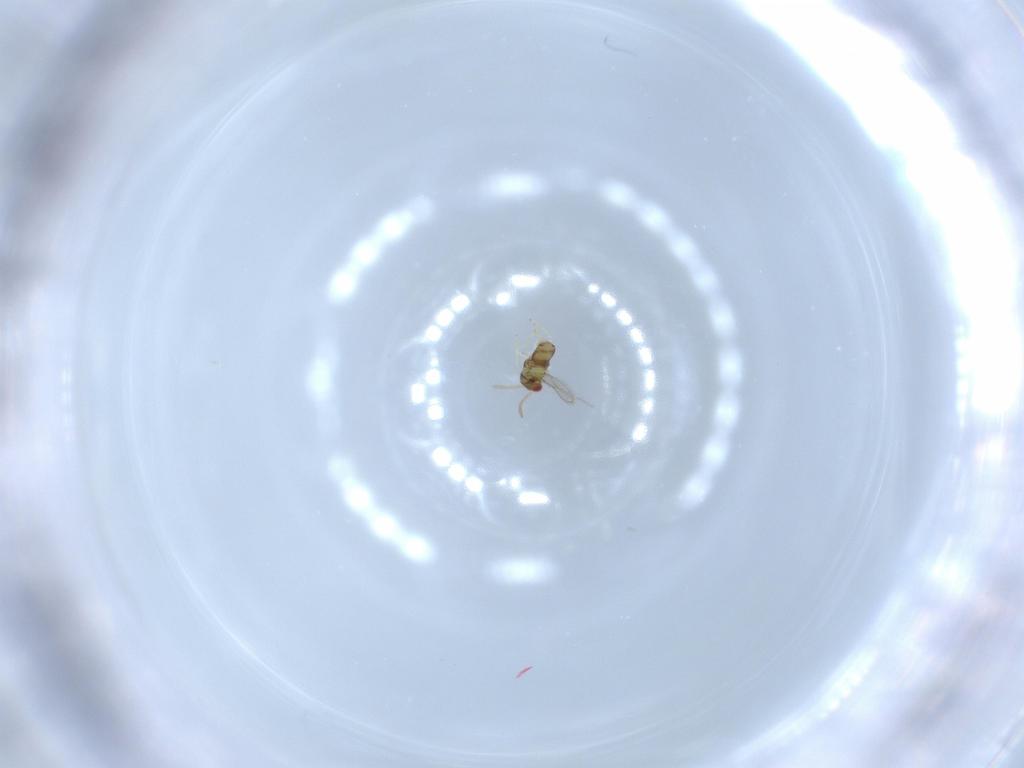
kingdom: Animalia
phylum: Arthropoda
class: Insecta
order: Hymenoptera
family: Aphelinidae
